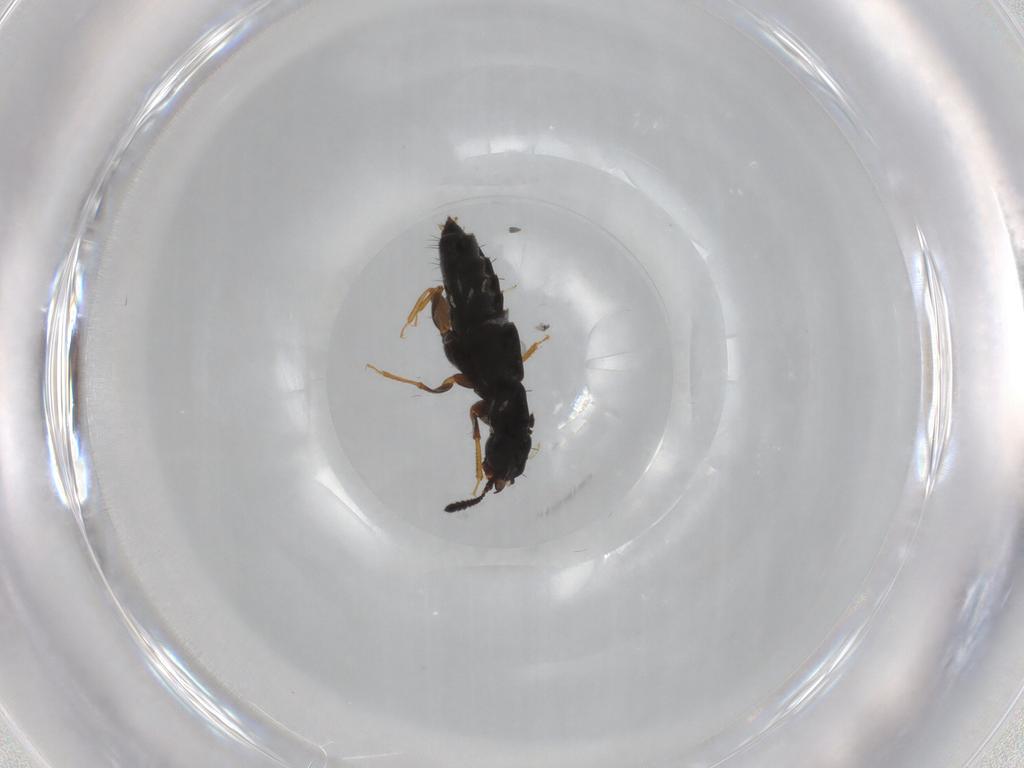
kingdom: Animalia
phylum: Arthropoda
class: Insecta
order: Coleoptera
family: Staphylinidae
